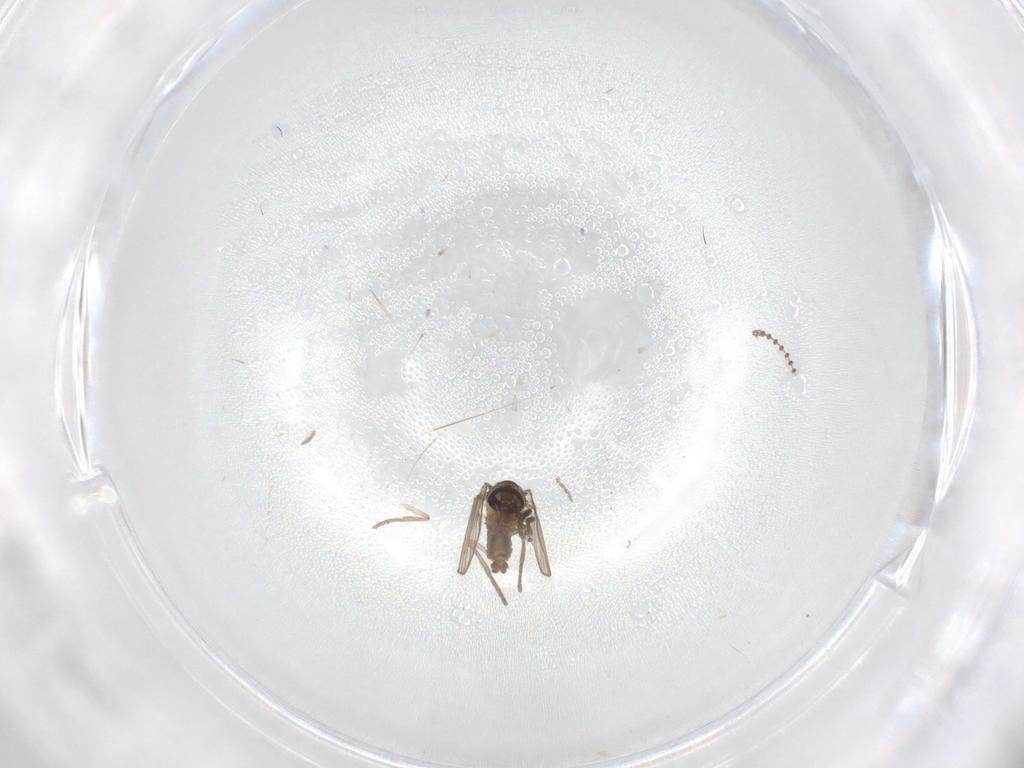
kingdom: Animalia
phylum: Arthropoda
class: Insecta
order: Diptera
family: Psychodidae
